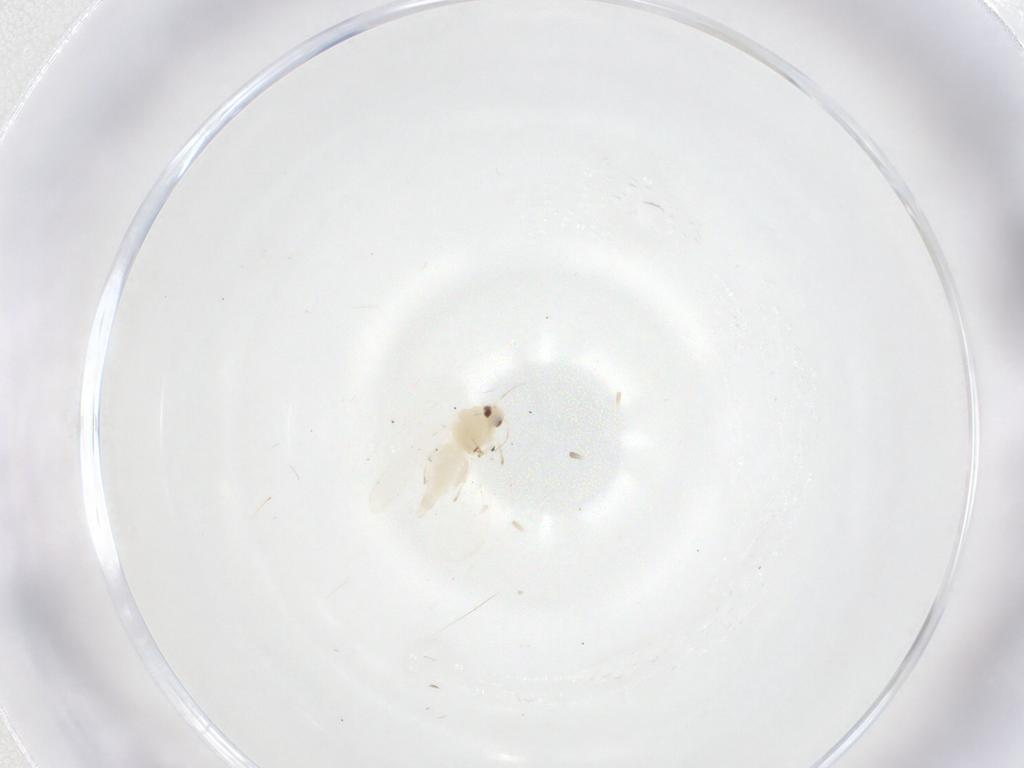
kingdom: Animalia
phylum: Arthropoda
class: Insecta
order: Hemiptera
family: Aleyrodidae
